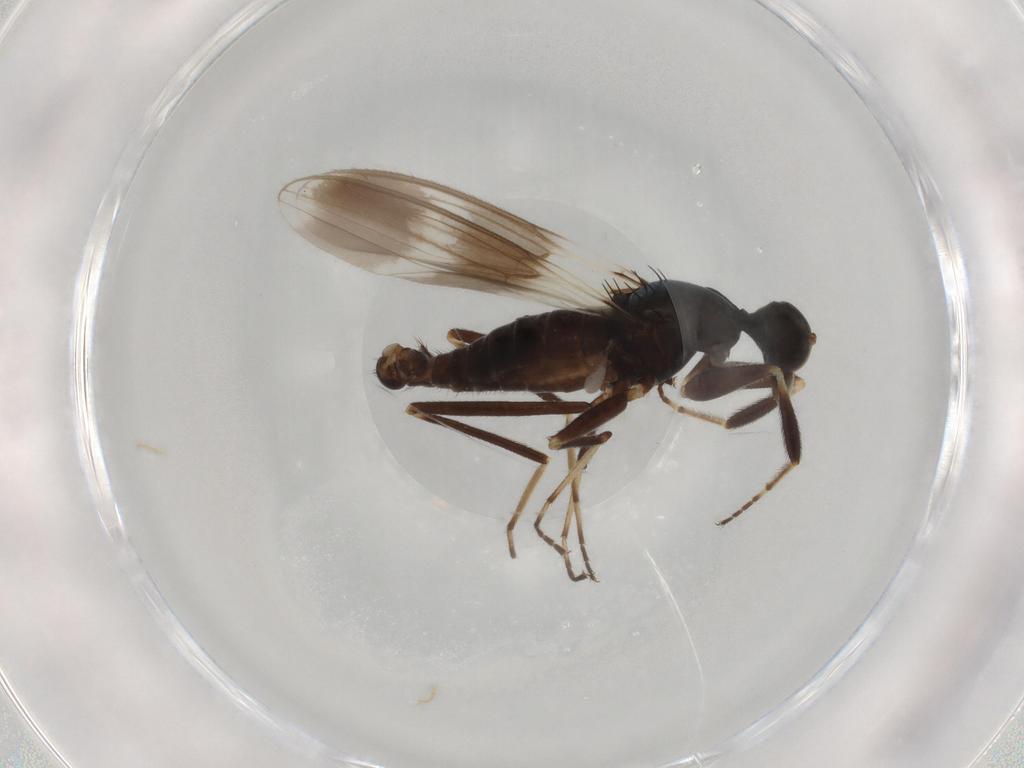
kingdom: Animalia
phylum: Arthropoda
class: Insecta
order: Diptera
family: Hybotidae
